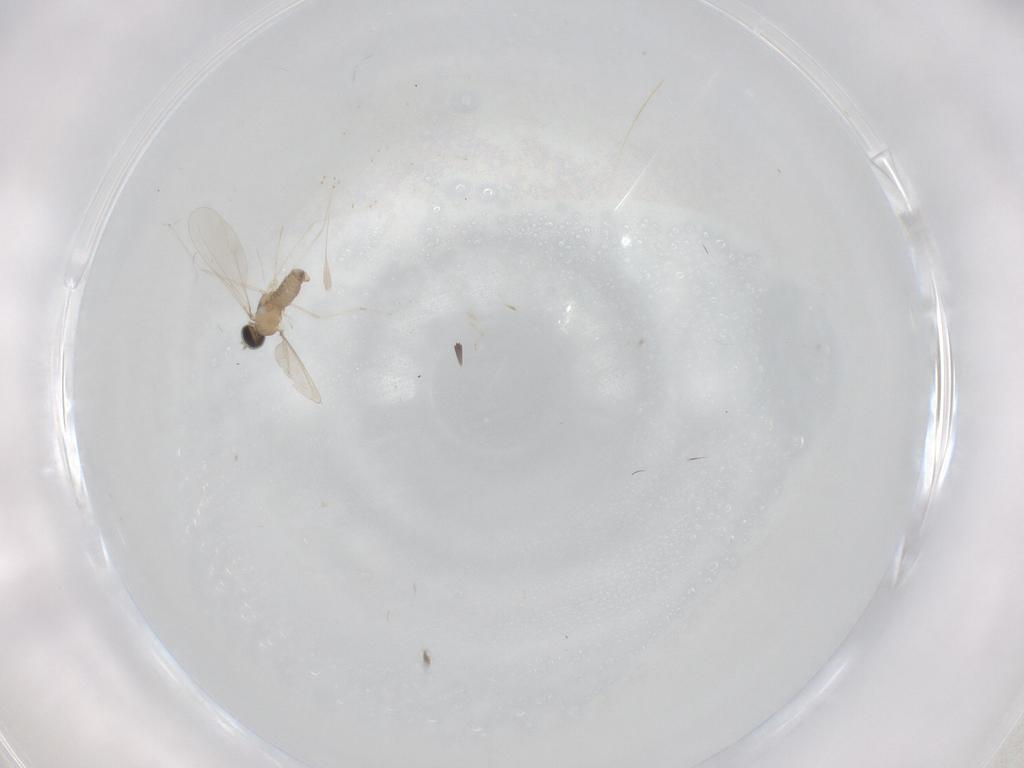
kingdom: Animalia
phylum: Arthropoda
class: Insecta
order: Diptera
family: Cecidomyiidae
